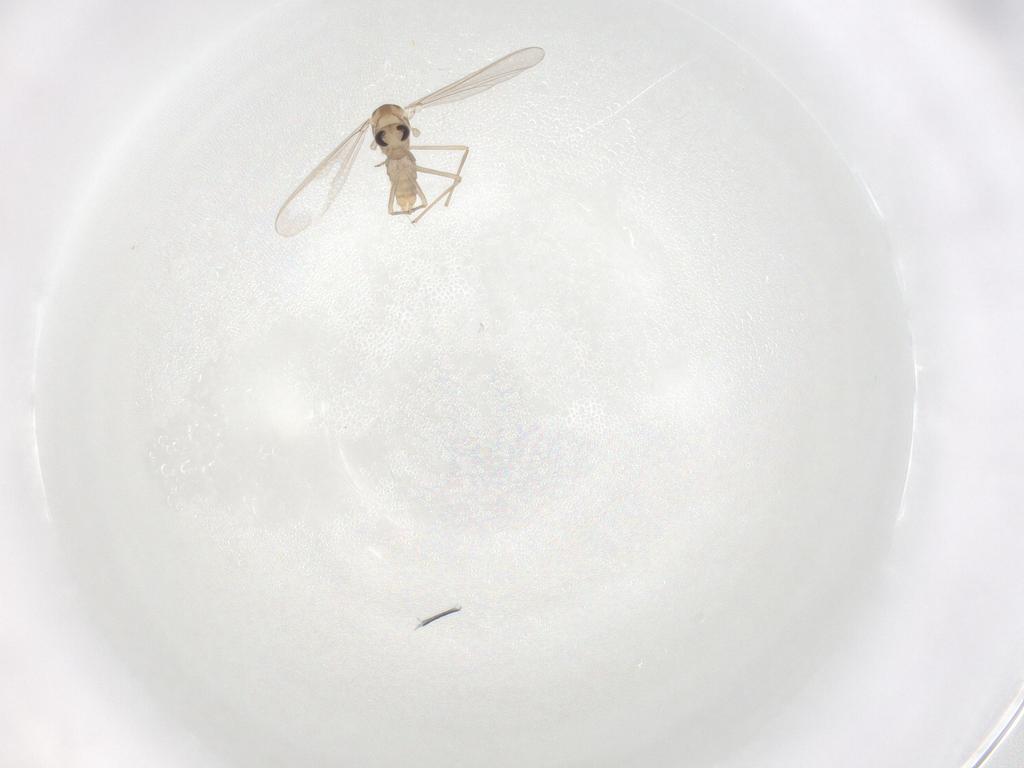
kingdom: Animalia
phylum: Arthropoda
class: Insecta
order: Diptera
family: Chironomidae
